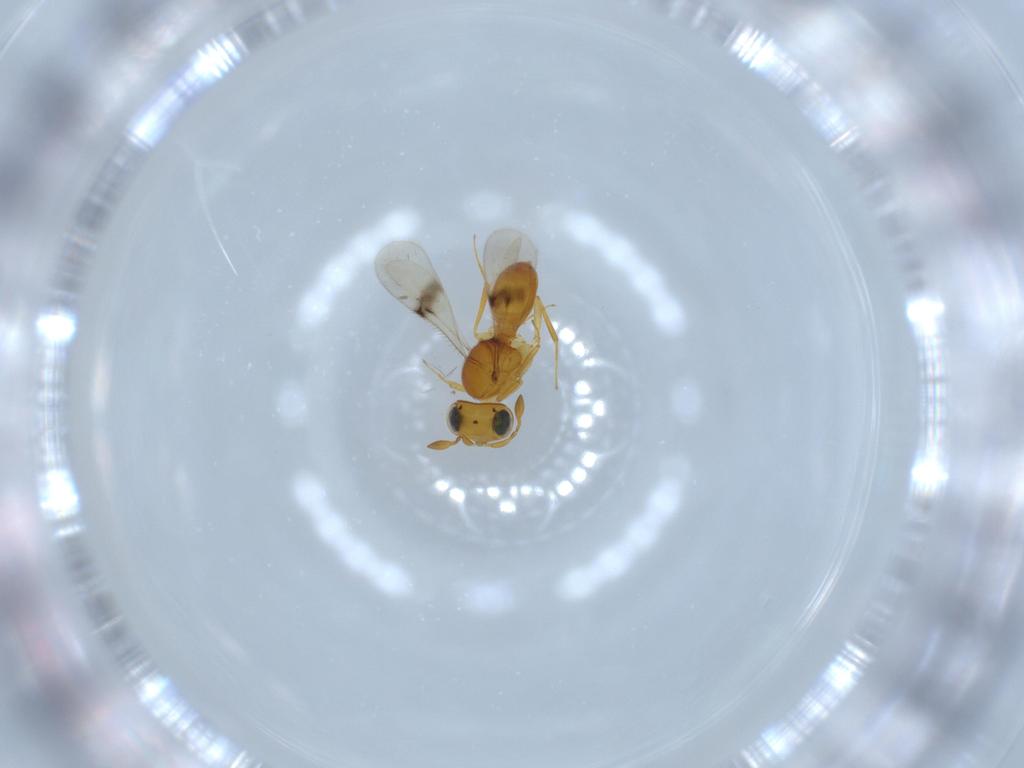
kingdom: Animalia
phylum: Arthropoda
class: Insecta
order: Hymenoptera
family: Scelionidae
